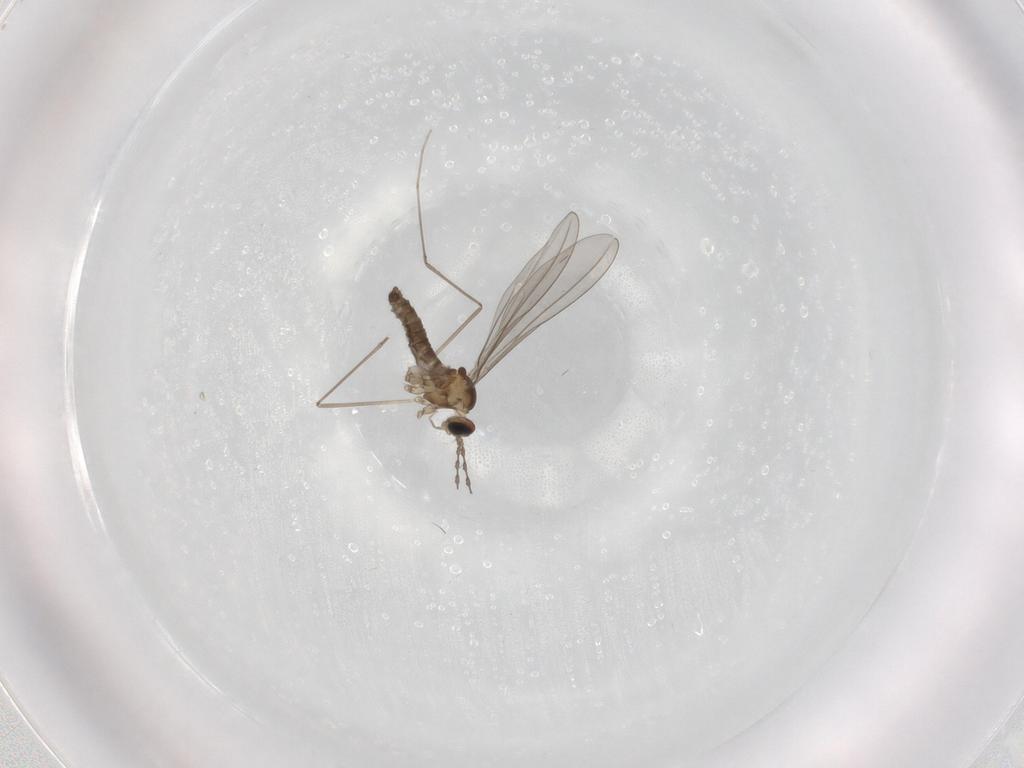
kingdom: Animalia
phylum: Arthropoda
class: Insecta
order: Diptera
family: Cecidomyiidae
